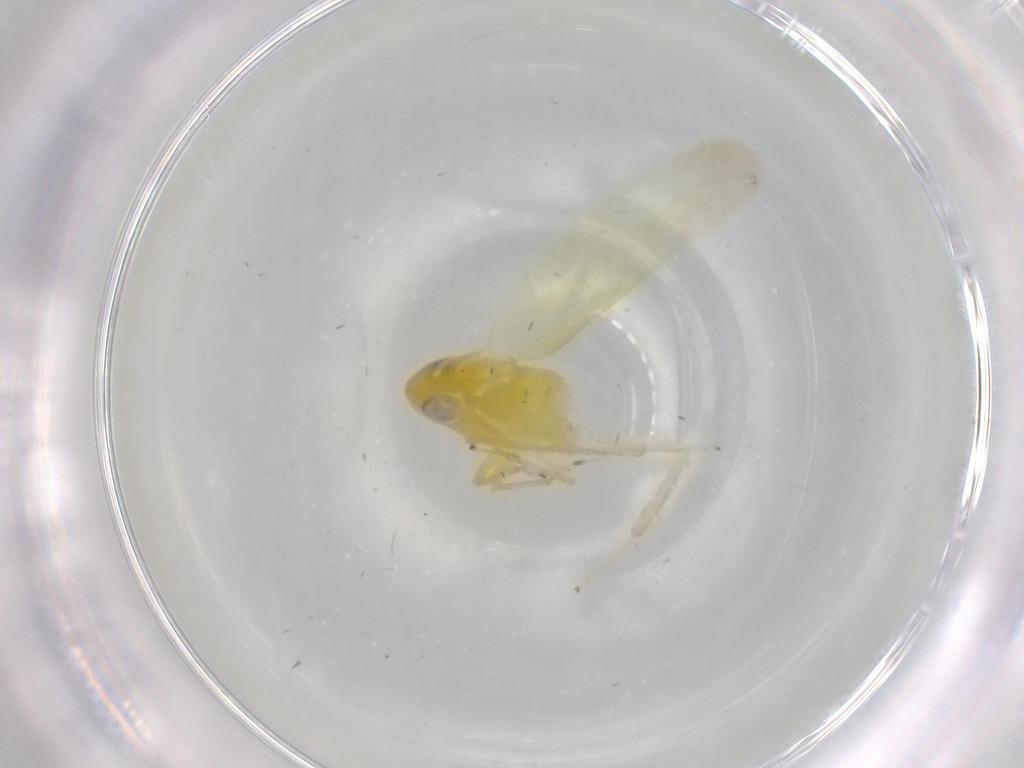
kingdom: Animalia
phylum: Arthropoda
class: Insecta
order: Hemiptera
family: Cicadellidae
